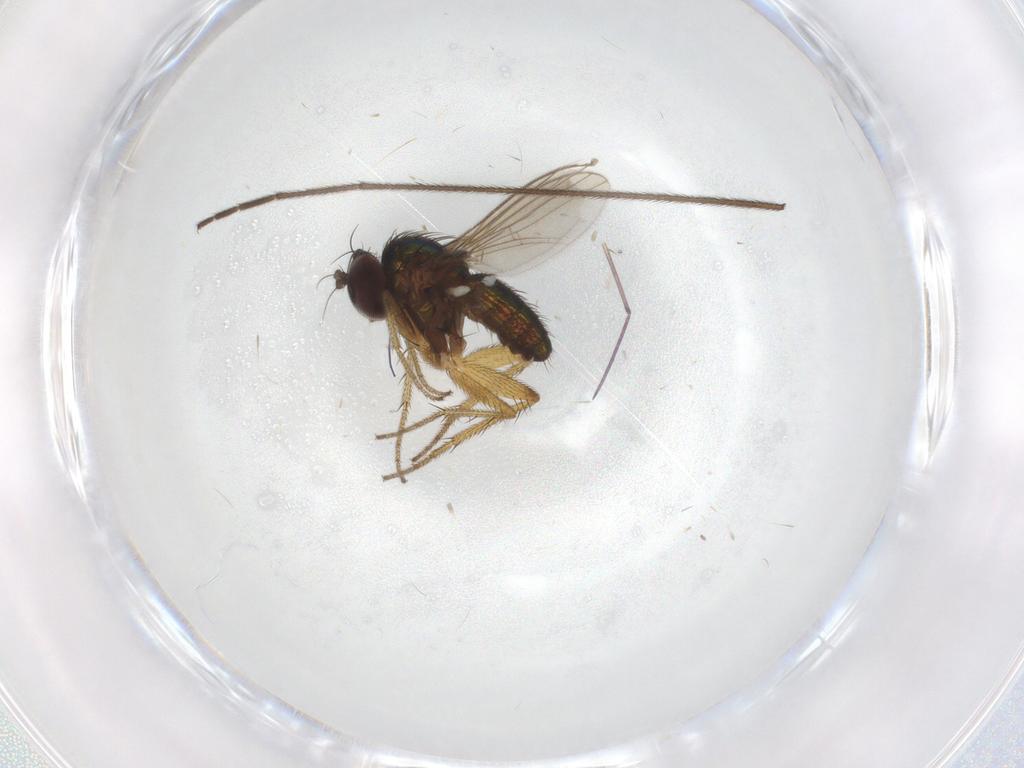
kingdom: Animalia
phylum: Arthropoda
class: Insecta
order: Diptera
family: Limoniidae
